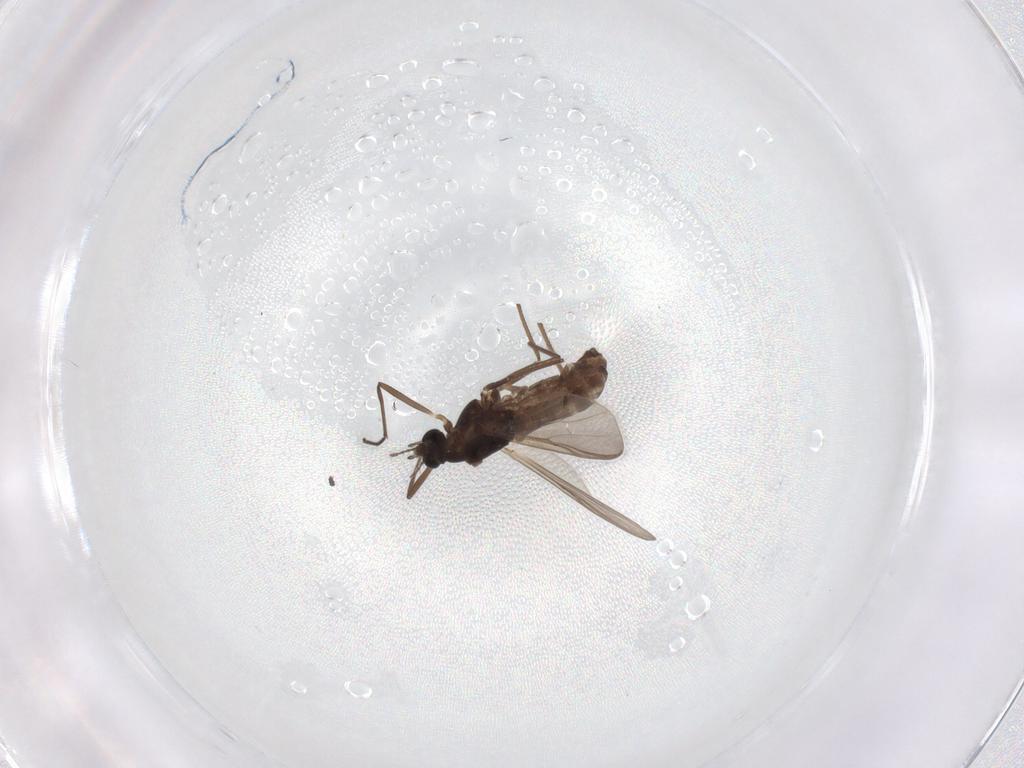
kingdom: Animalia
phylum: Arthropoda
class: Insecta
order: Diptera
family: Chironomidae
